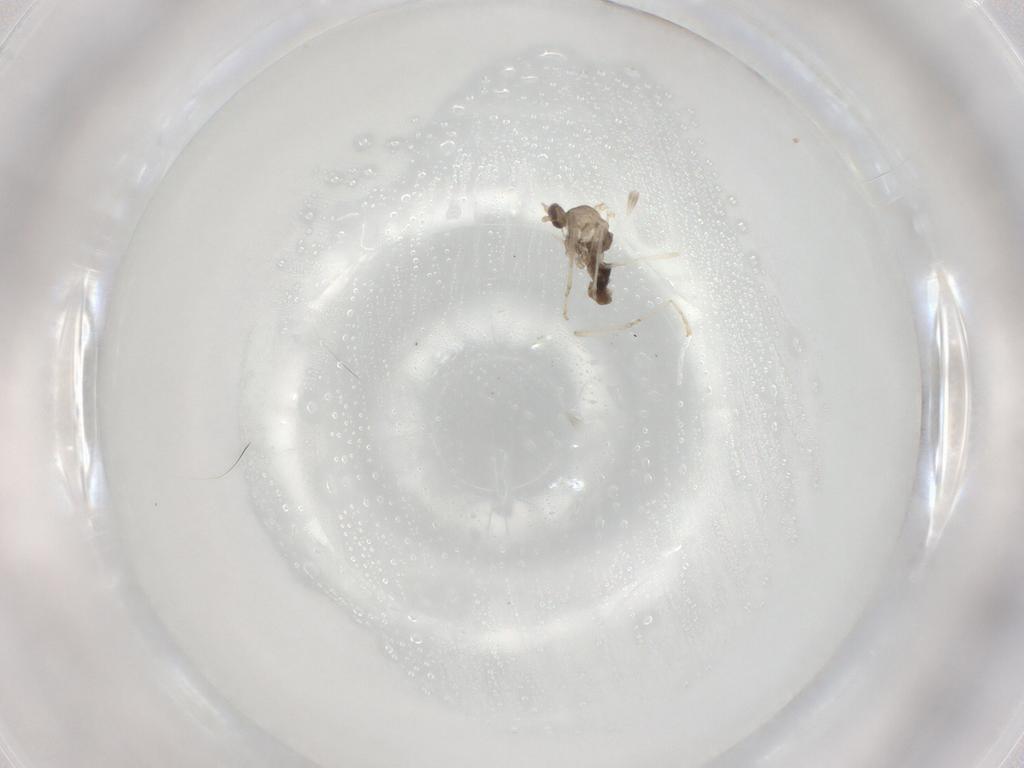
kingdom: Animalia
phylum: Arthropoda
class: Insecta
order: Diptera
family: Cecidomyiidae
